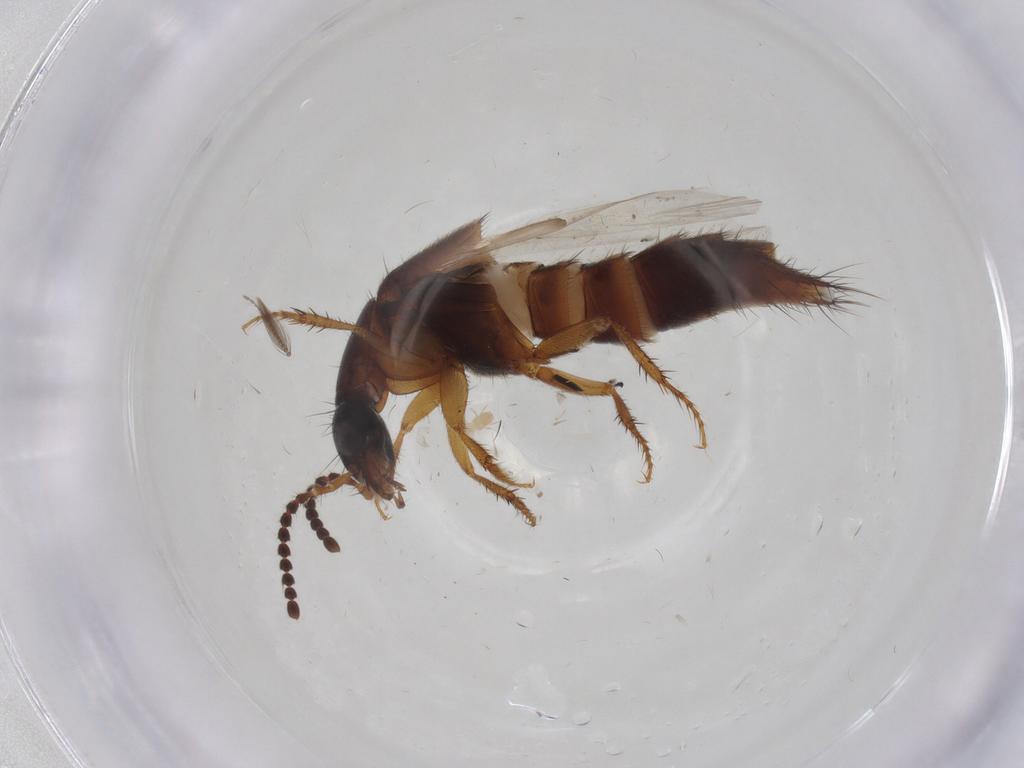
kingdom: Animalia
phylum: Arthropoda
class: Insecta
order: Coleoptera
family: Staphylinidae
